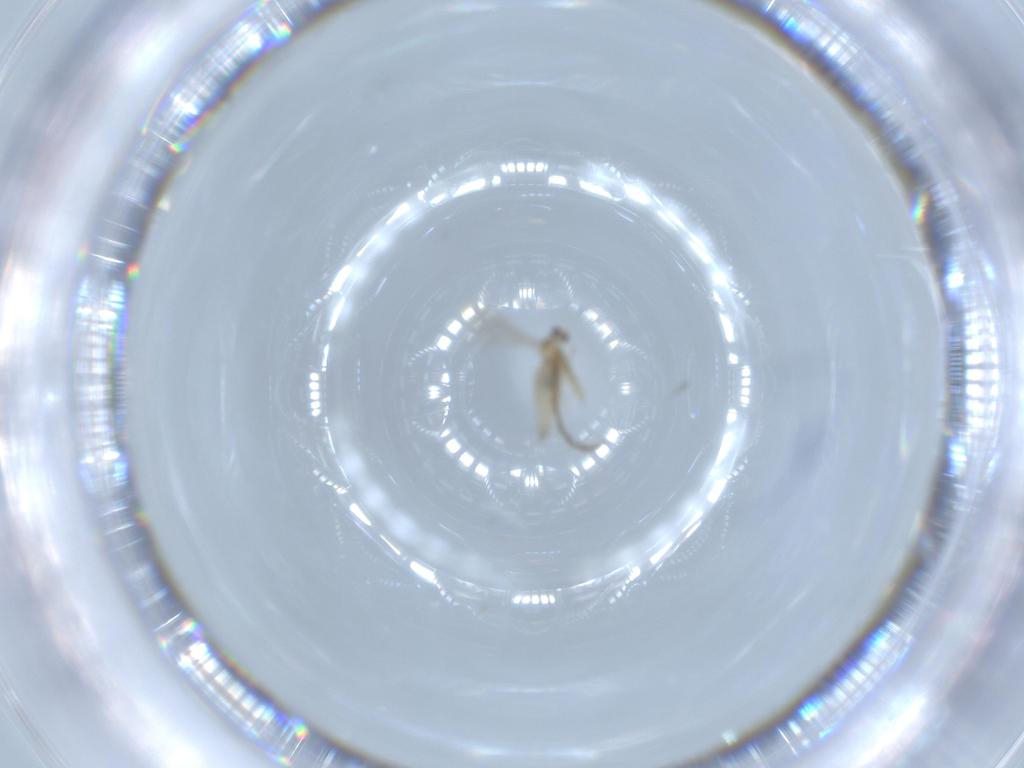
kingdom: Animalia
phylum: Arthropoda
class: Insecta
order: Diptera
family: Cecidomyiidae
